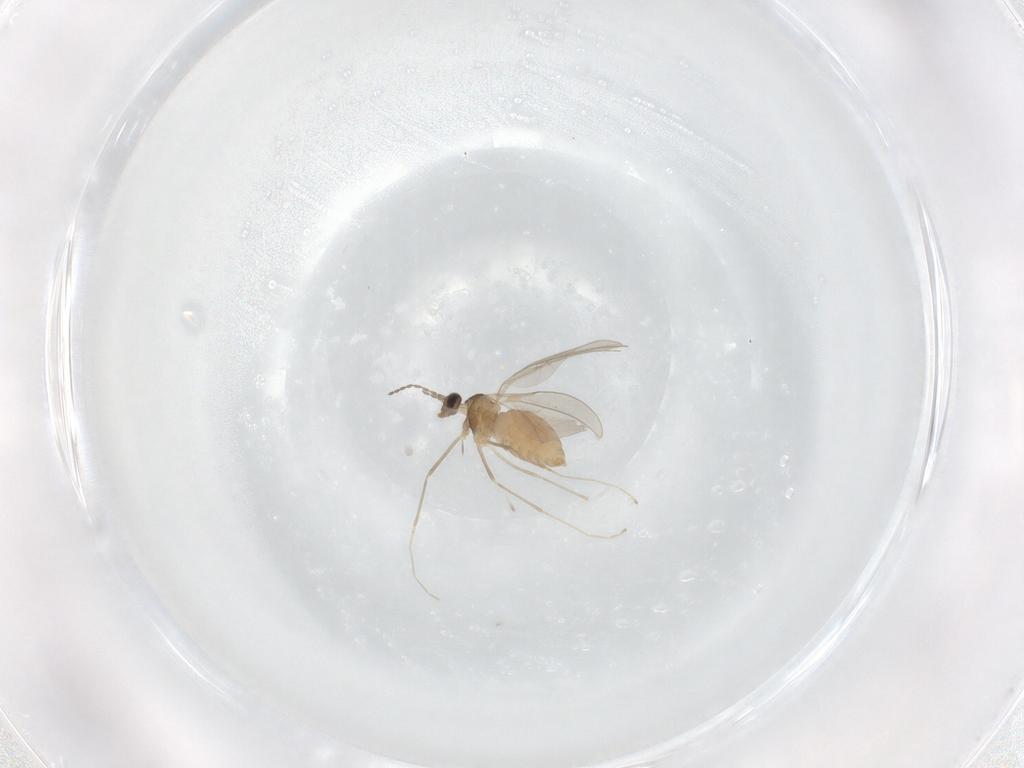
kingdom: Animalia
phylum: Arthropoda
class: Insecta
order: Diptera
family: Cecidomyiidae
